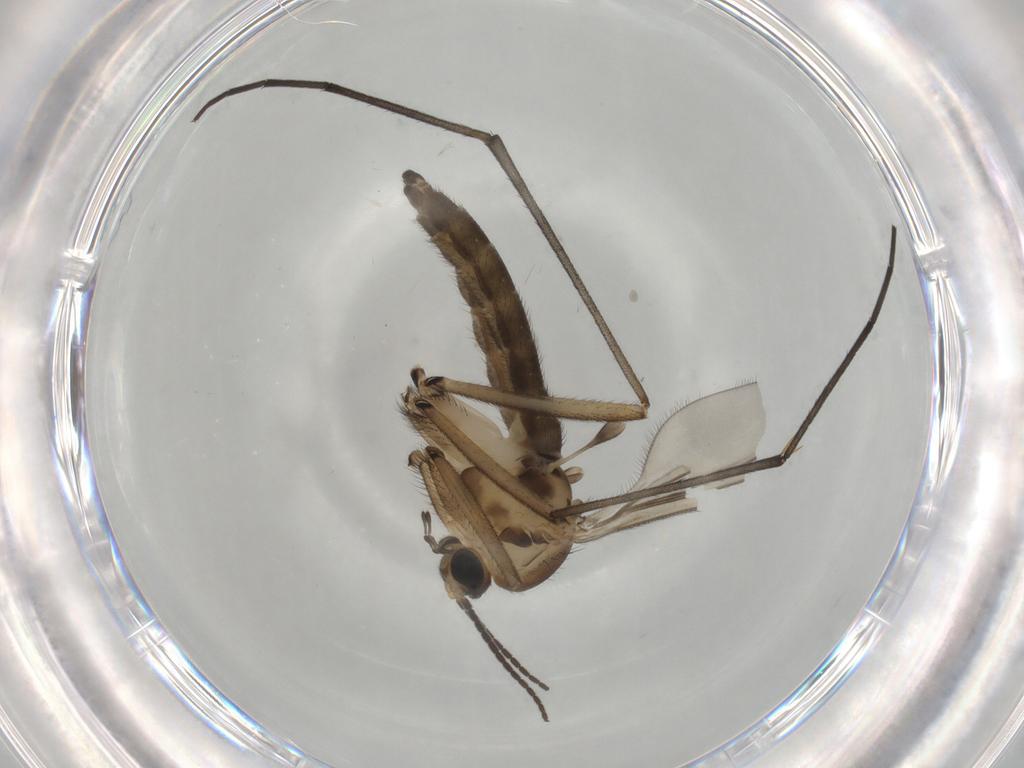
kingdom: Animalia
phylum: Arthropoda
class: Insecta
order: Diptera
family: Sciaridae
